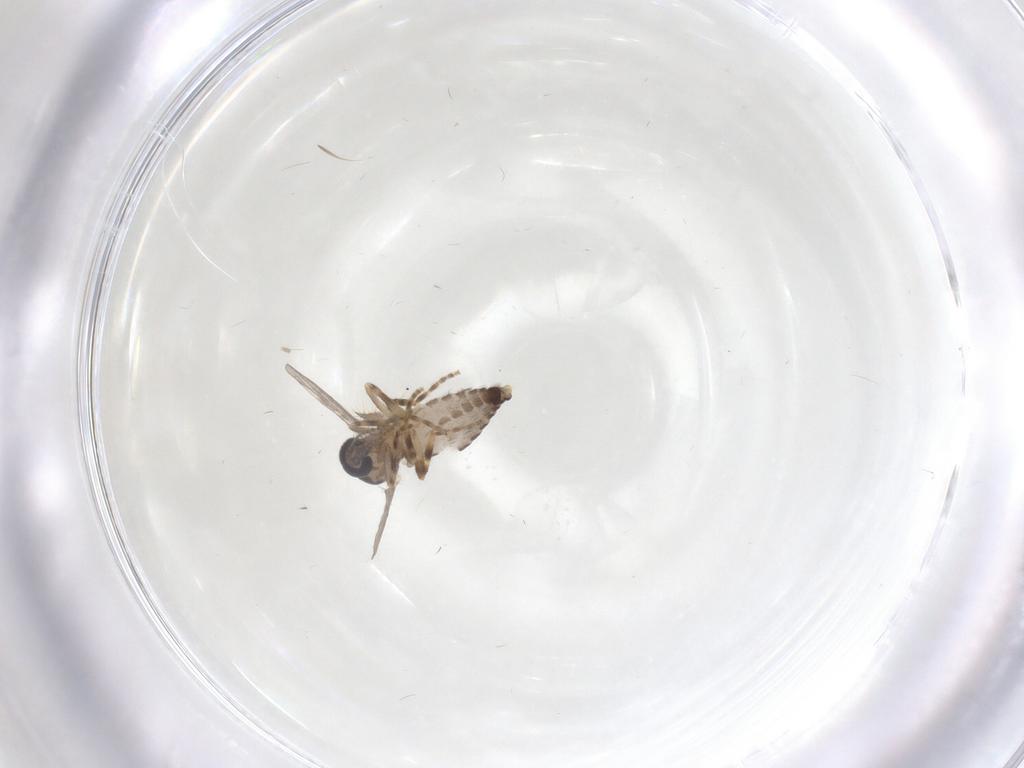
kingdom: Animalia
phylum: Arthropoda
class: Insecta
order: Diptera
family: Ceratopogonidae
